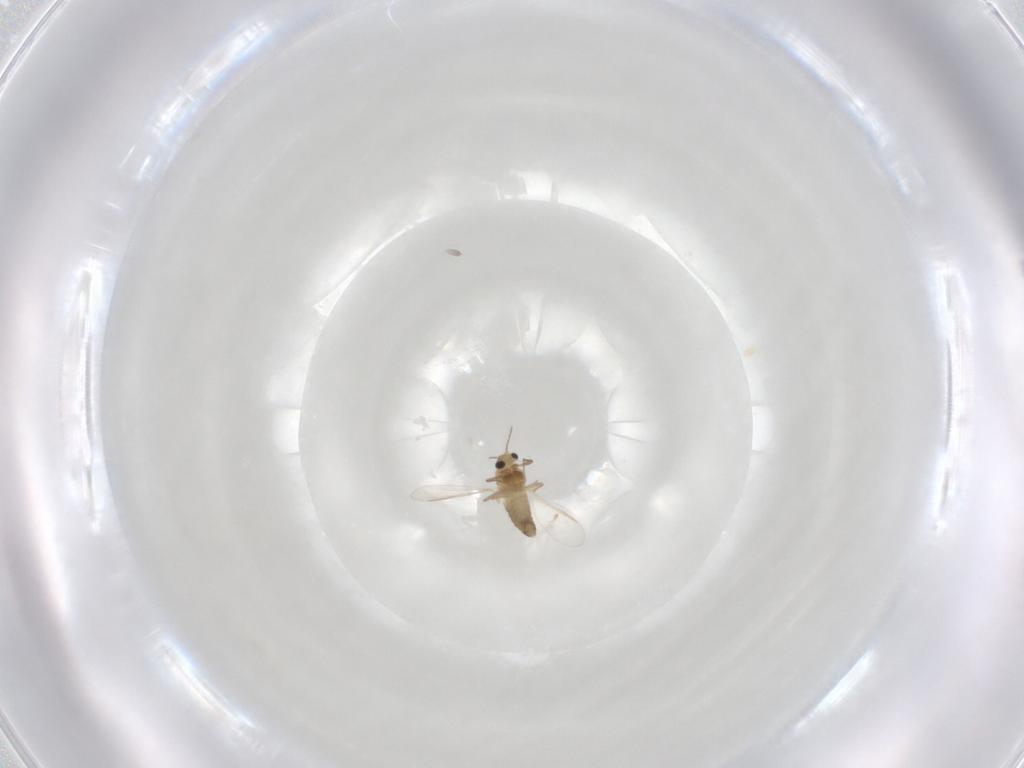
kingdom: Animalia
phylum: Arthropoda
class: Insecta
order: Diptera
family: Chironomidae
